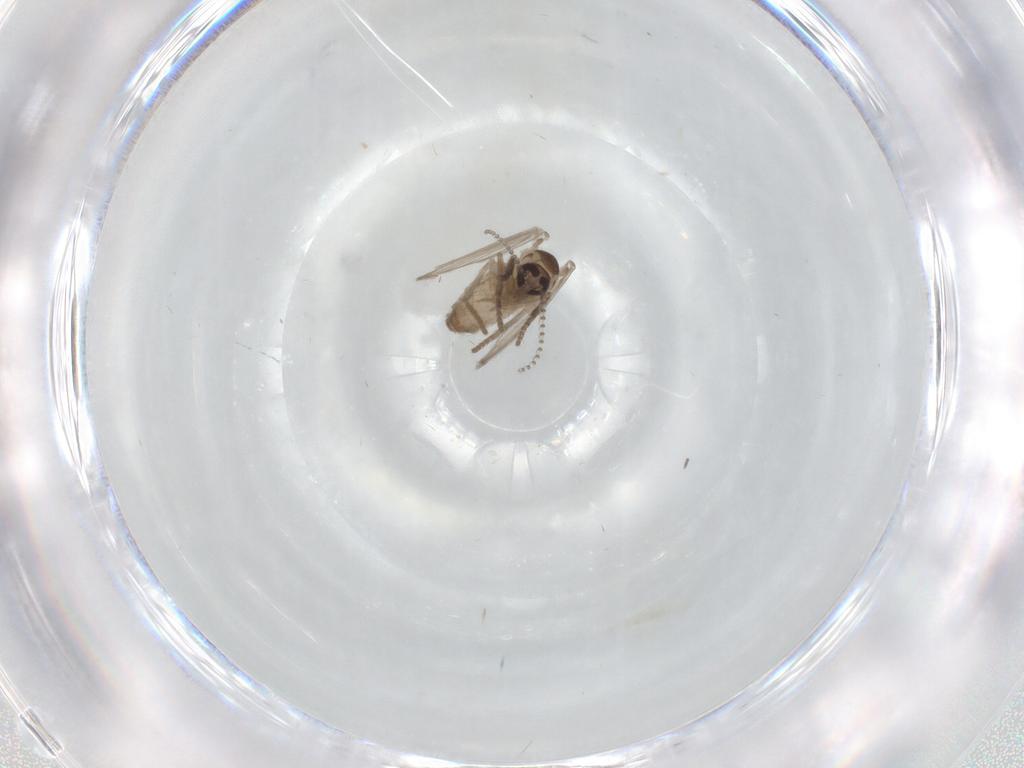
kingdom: Animalia
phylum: Arthropoda
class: Insecta
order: Diptera
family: Psychodidae
